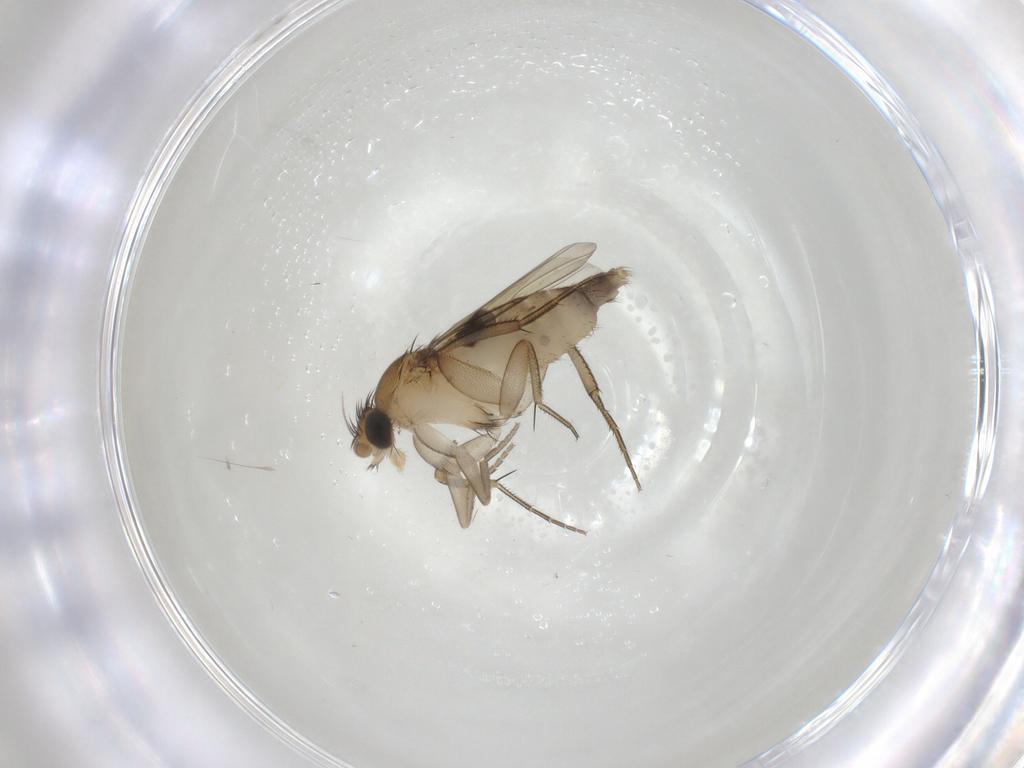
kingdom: Animalia
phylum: Arthropoda
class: Insecta
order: Diptera
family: Phoridae
